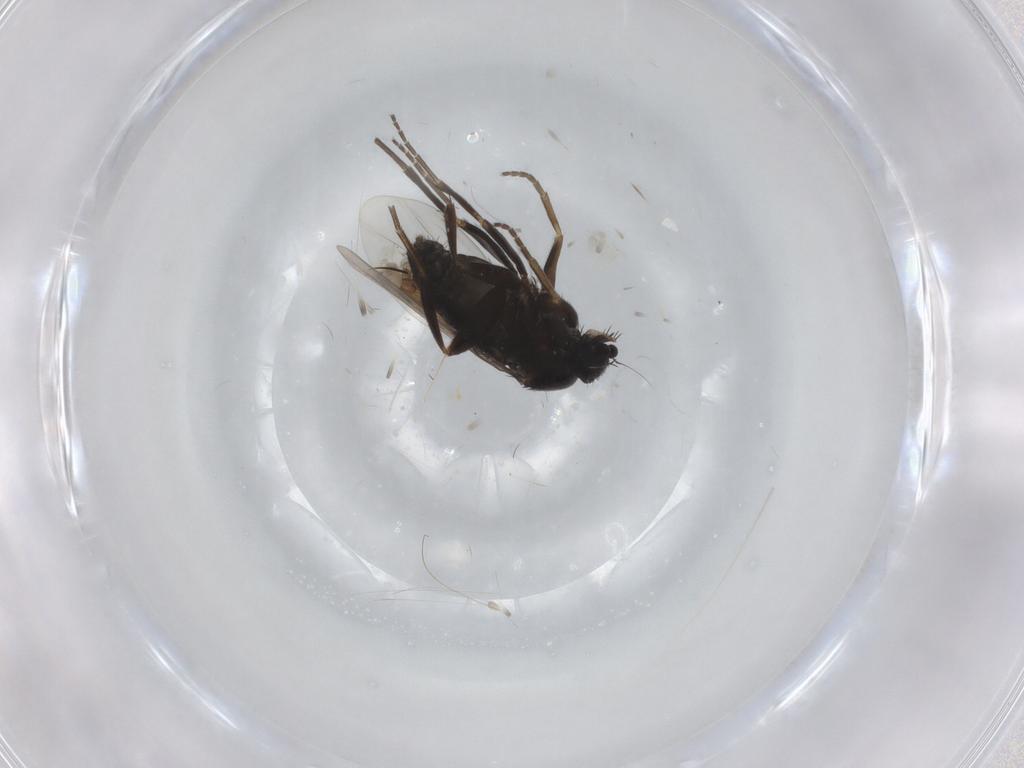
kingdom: Animalia
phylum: Arthropoda
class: Insecta
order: Diptera
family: Phoridae
